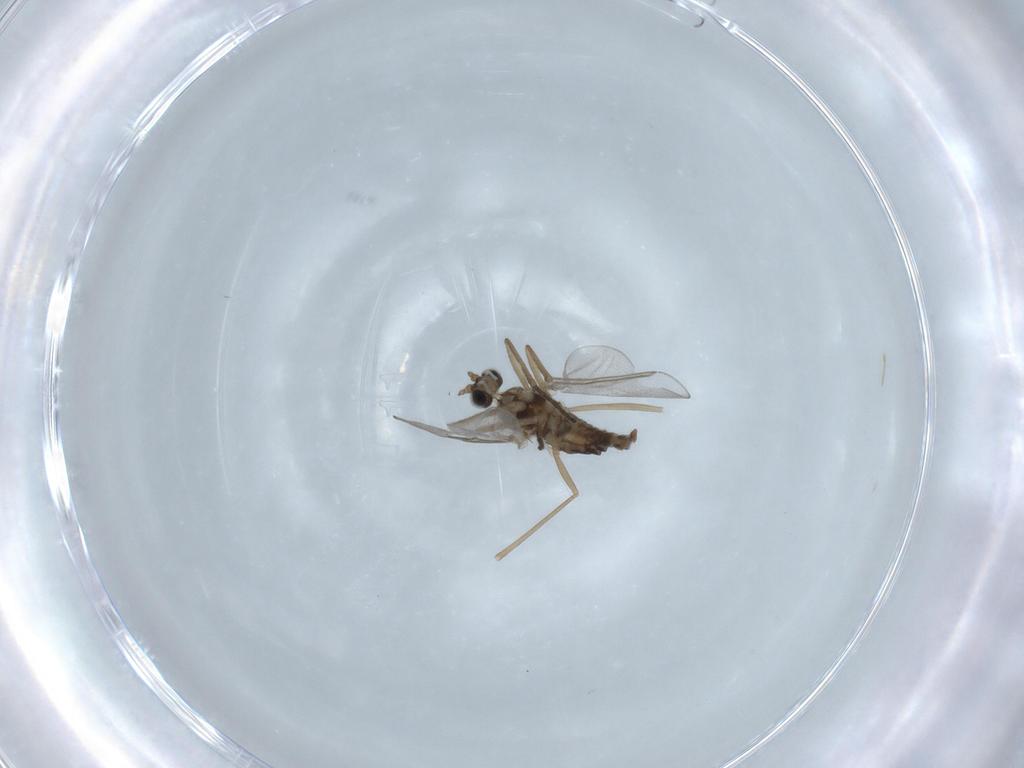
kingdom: Animalia
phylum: Arthropoda
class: Insecta
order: Diptera
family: Cecidomyiidae
